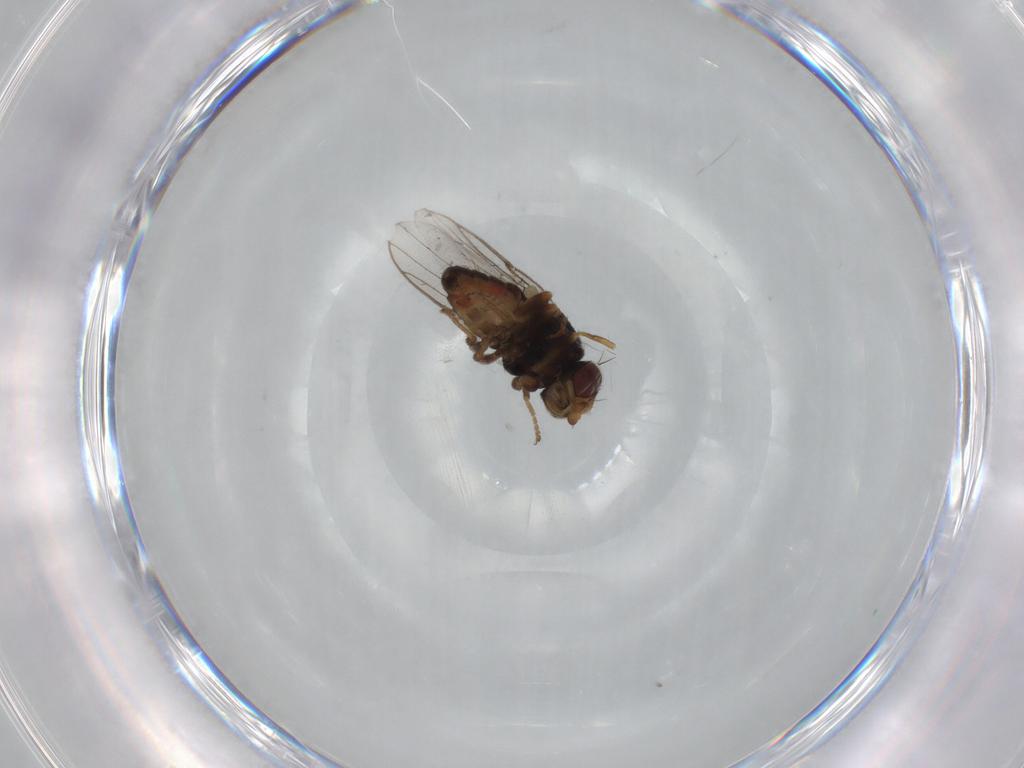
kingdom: Animalia
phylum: Arthropoda
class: Insecta
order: Diptera
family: Chloropidae
